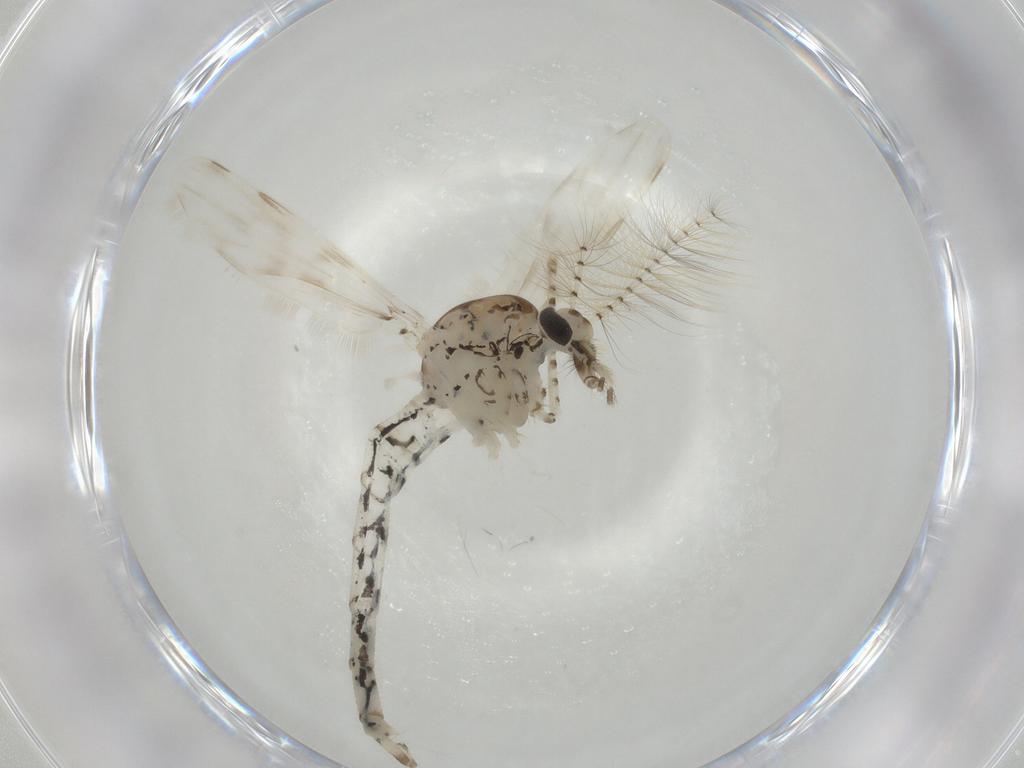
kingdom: Animalia
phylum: Arthropoda
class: Insecta
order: Diptera
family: Chironomidae
